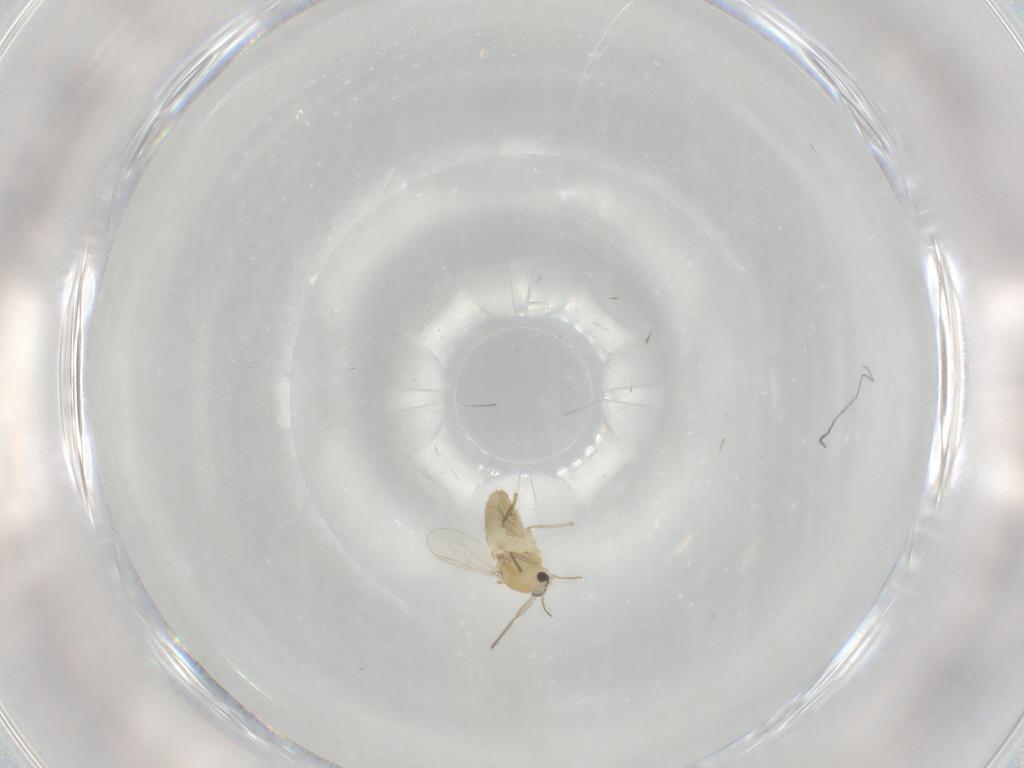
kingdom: Animalia
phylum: Arthropoda
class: Insecta
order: Diptera
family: Chironomidae
